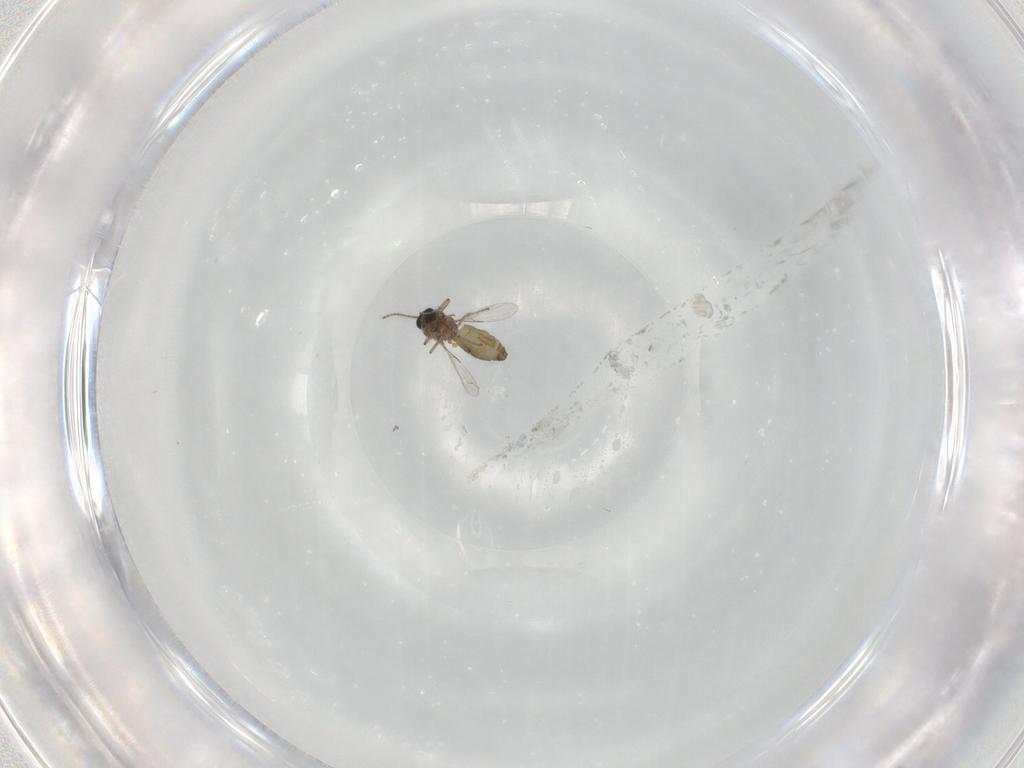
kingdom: Animalia
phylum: Arthropoda
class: Insecta
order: Diptera
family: Ceratopogonidae
